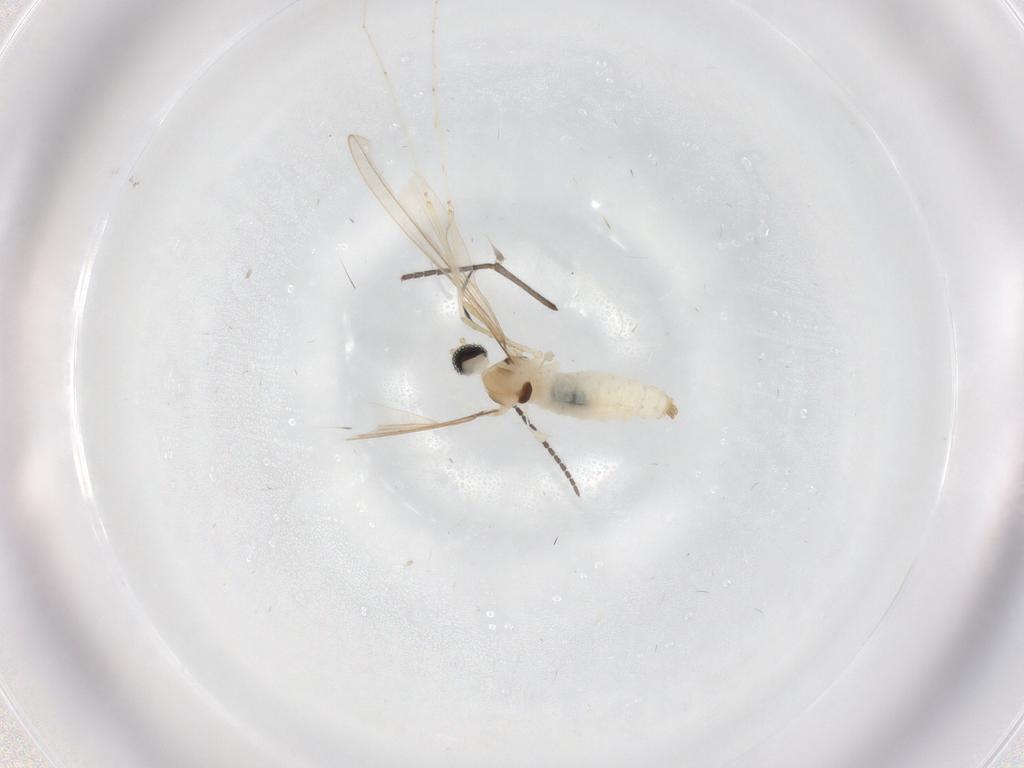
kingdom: Animalia
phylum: Arthropoda
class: Insecta
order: Diptera
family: Cecidomyiidae
